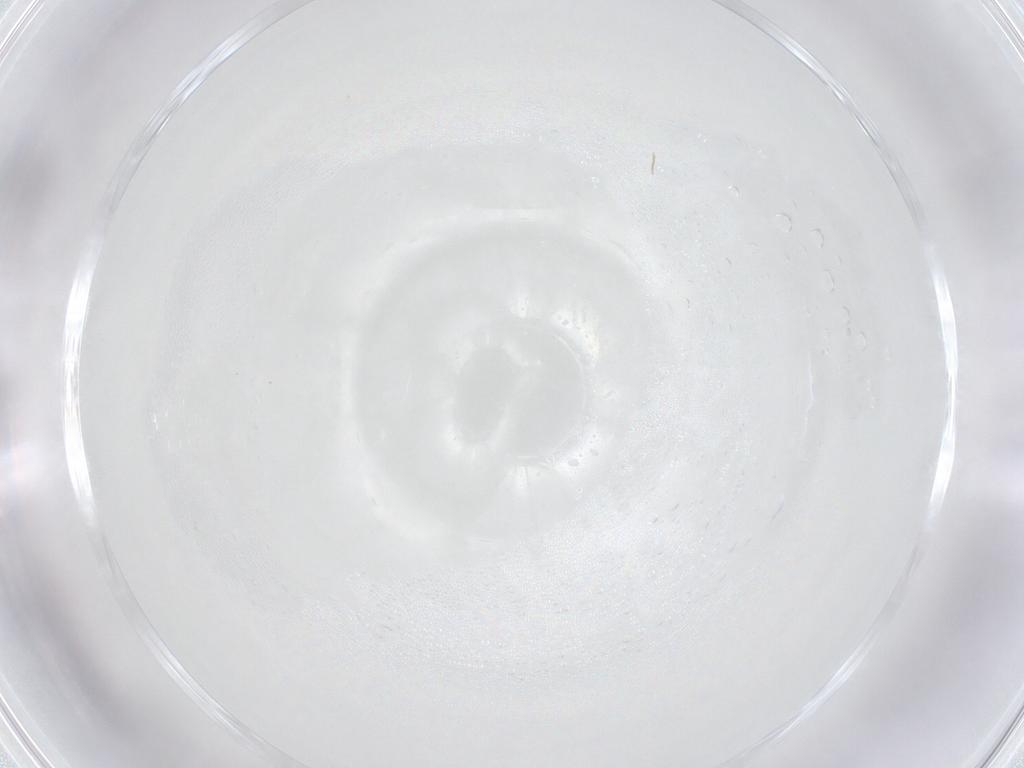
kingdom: Animalia
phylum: Arthropoda
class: Insecta
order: Diptera
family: Cecidomyiidae
